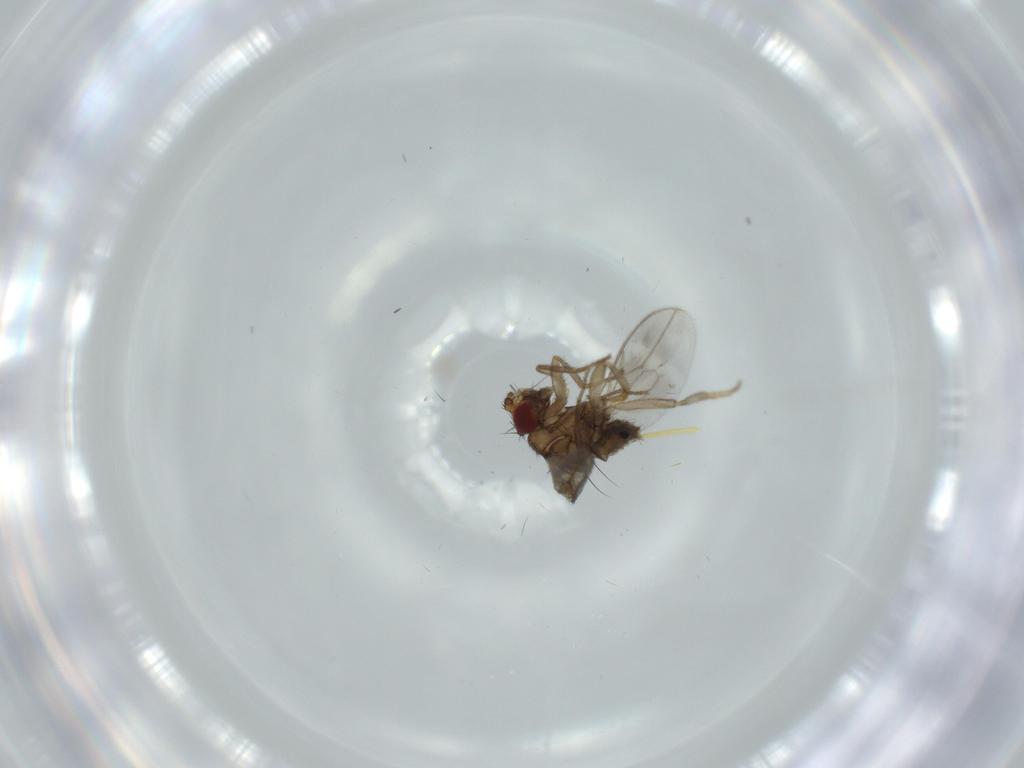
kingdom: Animalia
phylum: Arthropoda
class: Insecta
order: Diptera
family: Sphaeroceridae
